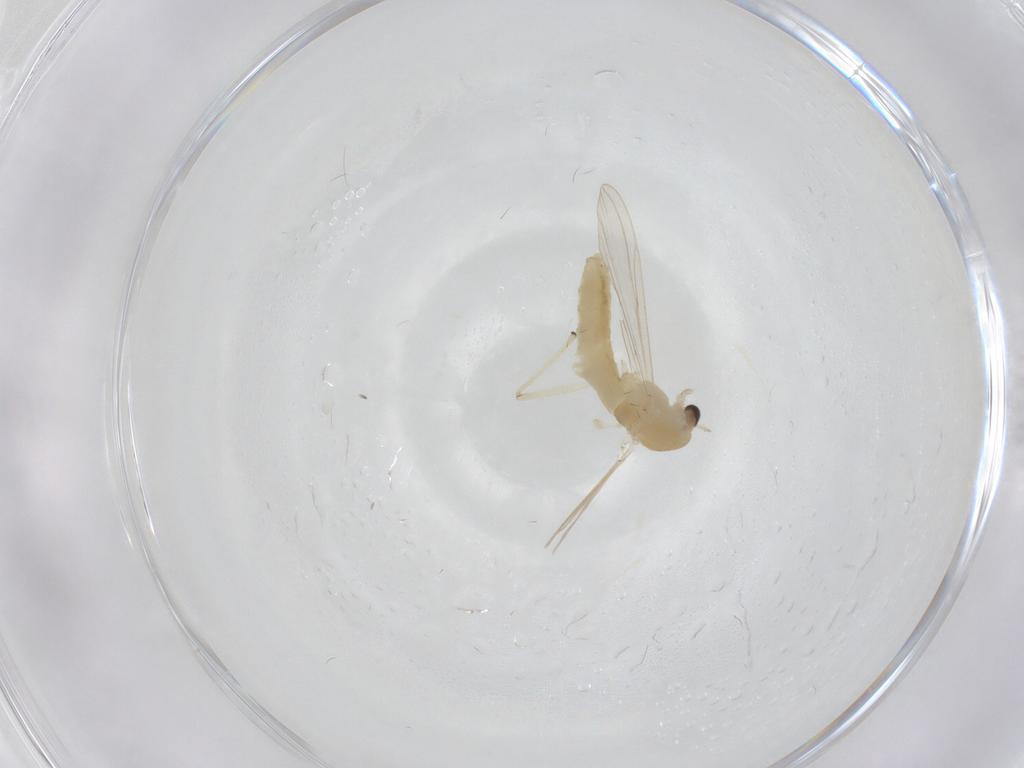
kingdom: Animalia
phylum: Arthropoda
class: Insecta
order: Diptera
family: Chironomidae
